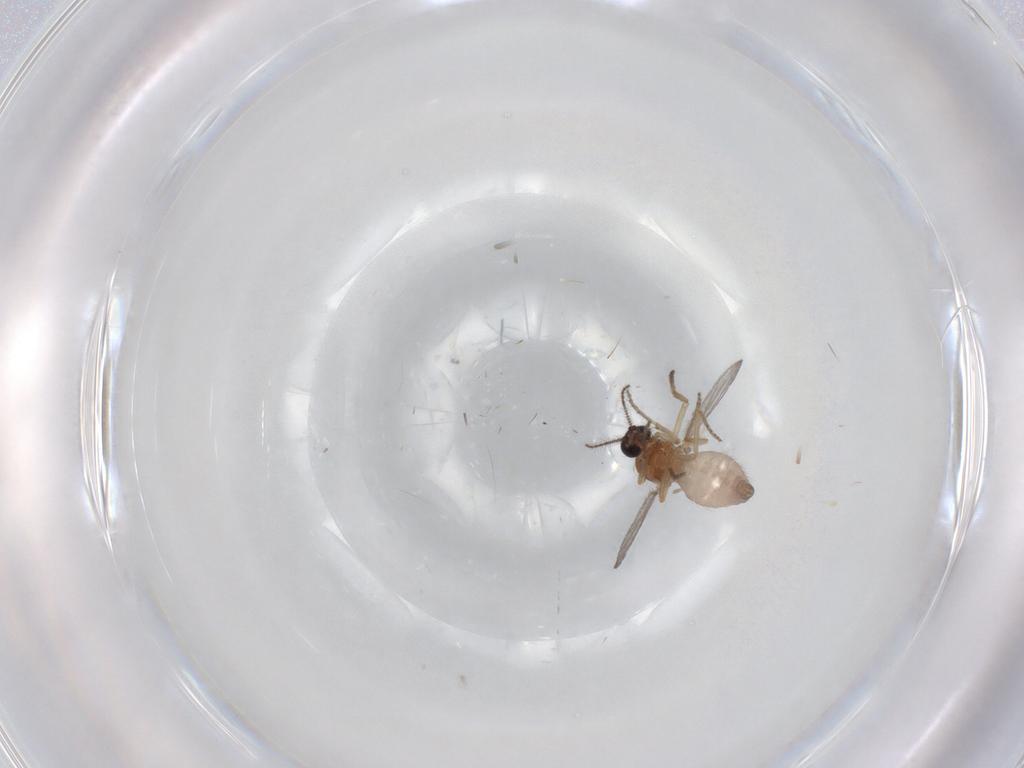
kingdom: Animalia
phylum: Arthropoda
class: Insecta
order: Diptera
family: Ceratopogonidae
